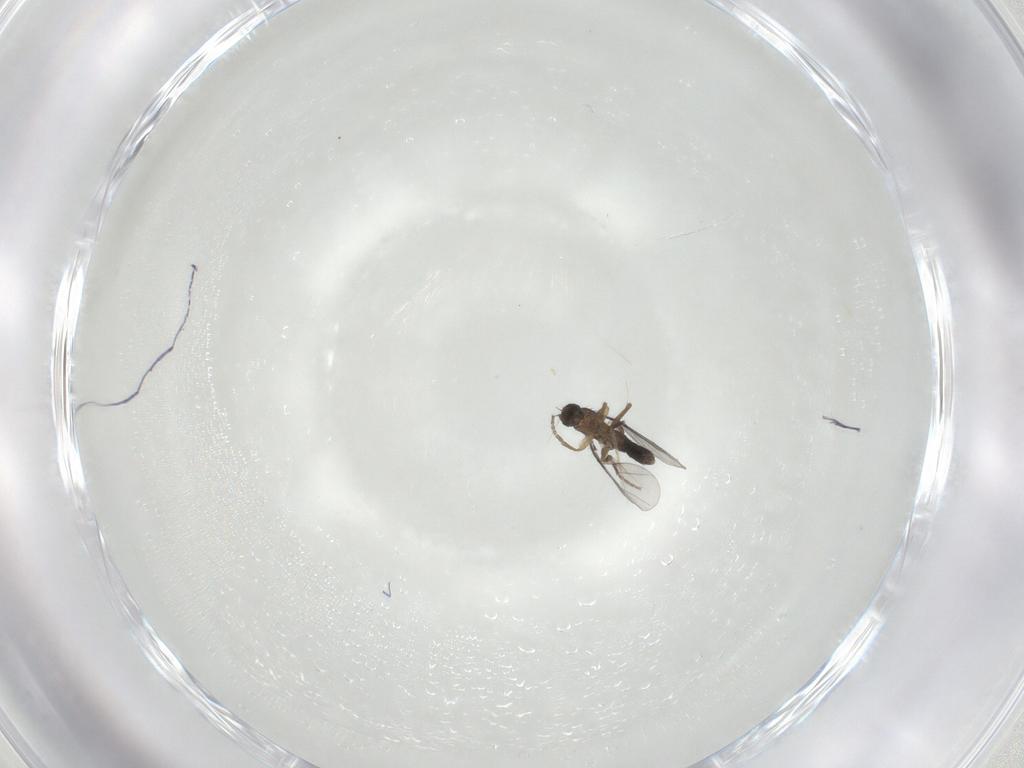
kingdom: Animalia
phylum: Arthropoda
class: Insecta
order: Diptera
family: Phoridae
